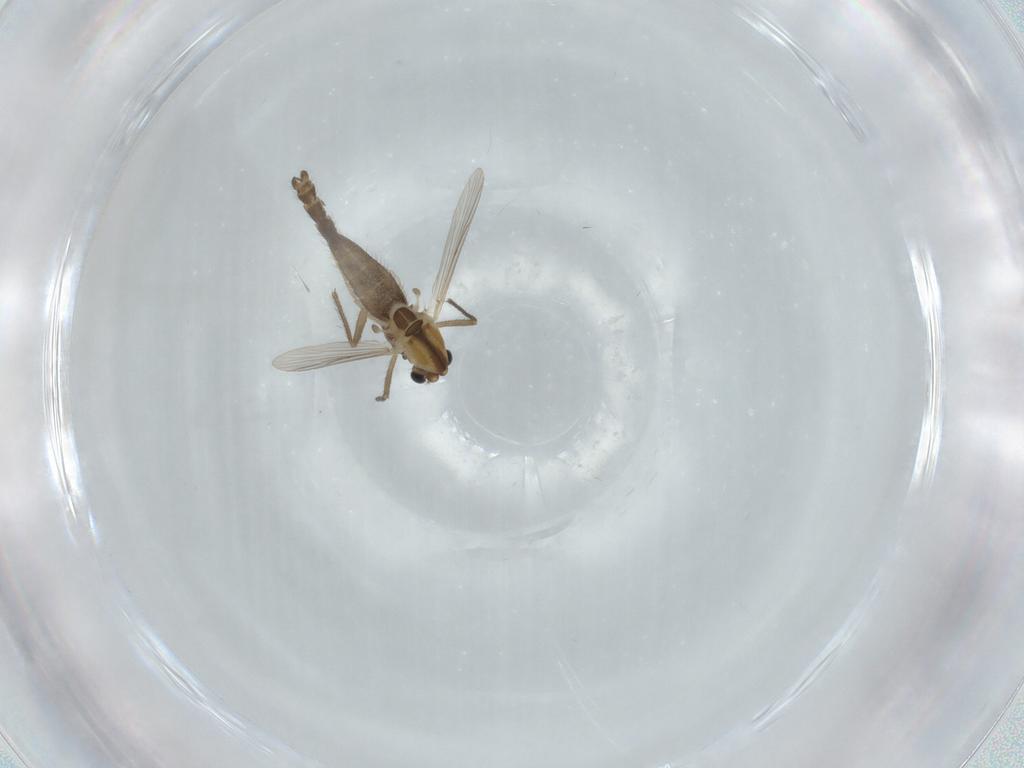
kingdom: Animalia
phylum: Arthropoda
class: Insecta
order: Diptera
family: Chironomidae
